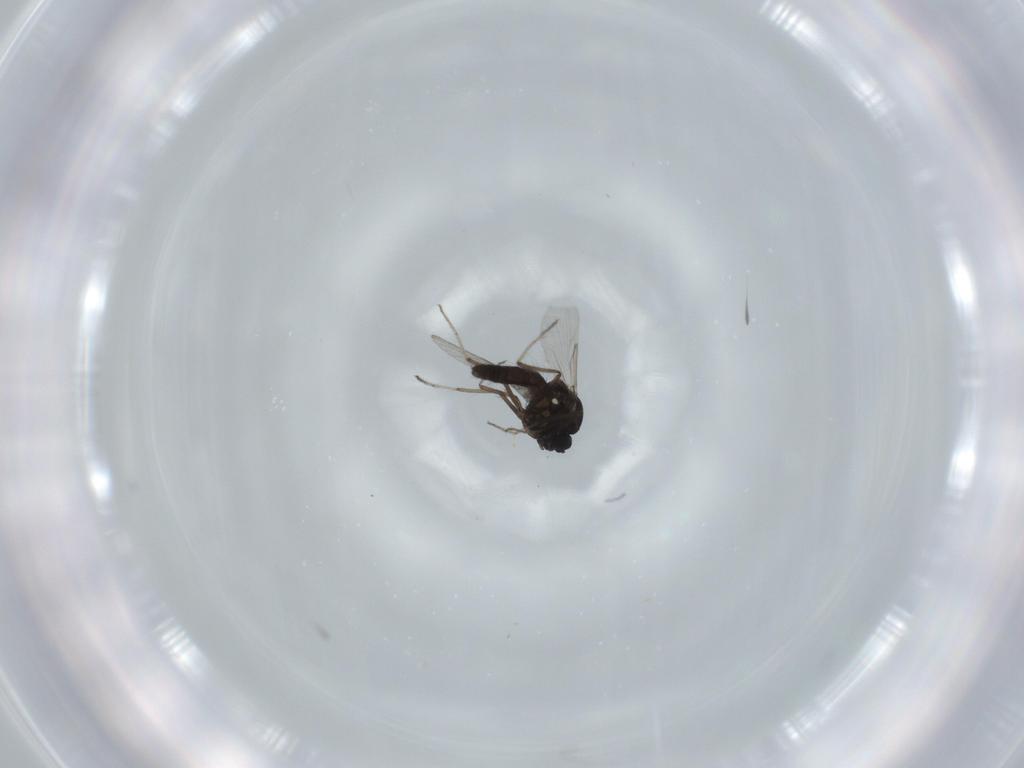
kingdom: Animalia
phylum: Arthropoda
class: Insecta
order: Diptera
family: Ceratopogonidae
